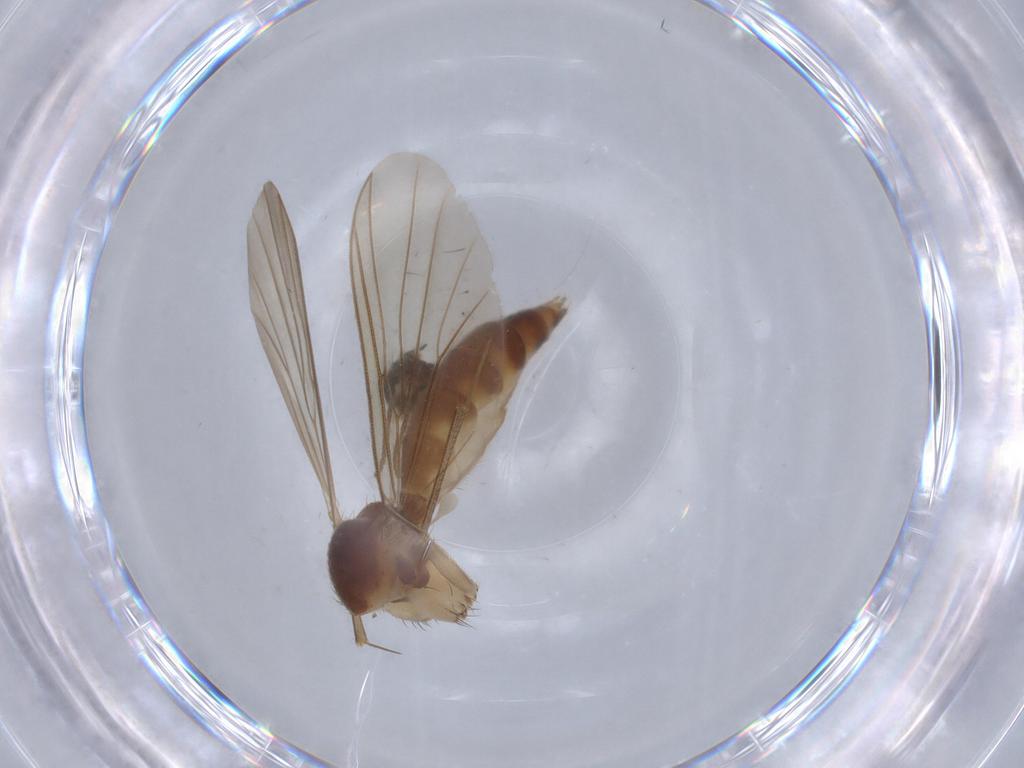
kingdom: Animalia
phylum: Arthropoda
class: Insecta
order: Diptera
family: Mycetophilidae
